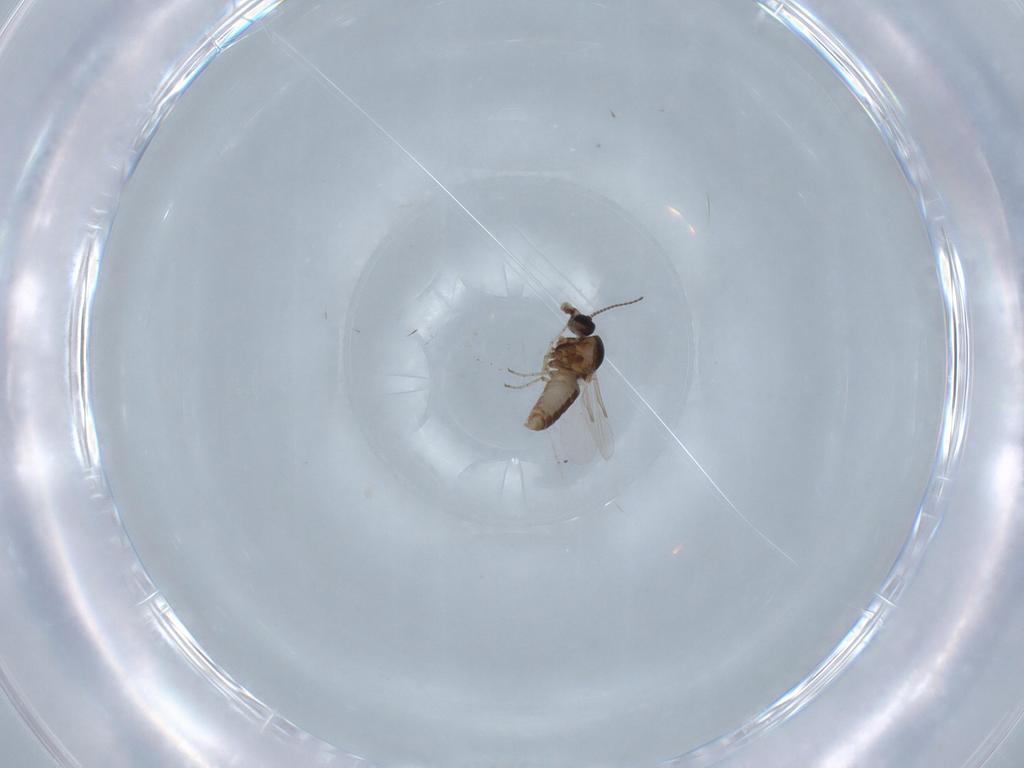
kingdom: Animalia
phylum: Arthropoda
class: Insecta
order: Diptera
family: Ceratopogonidae
